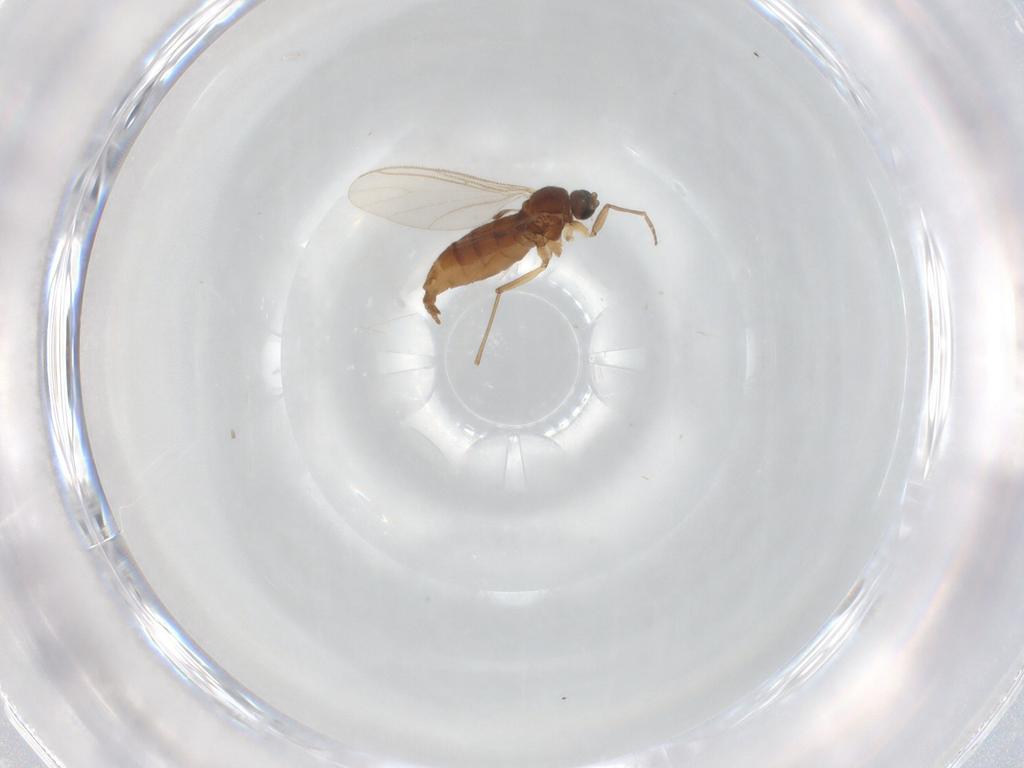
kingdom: Animalia
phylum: Arthropoda
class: Insecta
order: Diptera
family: Sciaridae
